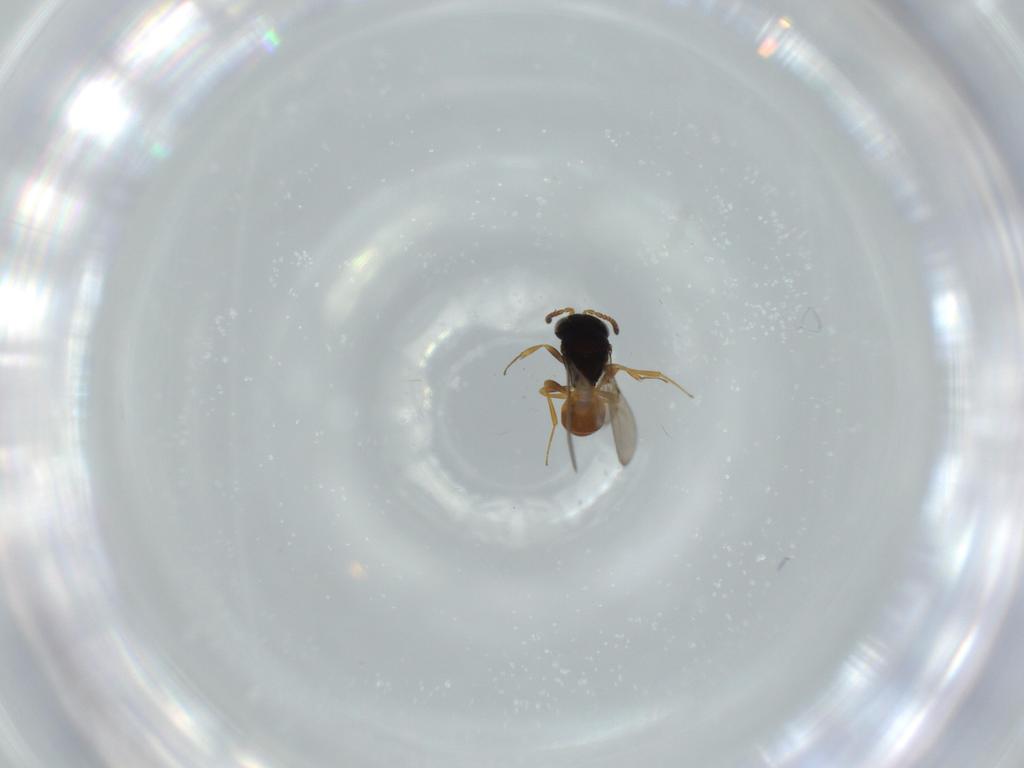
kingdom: Animalia
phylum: Arthropoda
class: Insecta
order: Hymenoptera
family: Scelionidae
